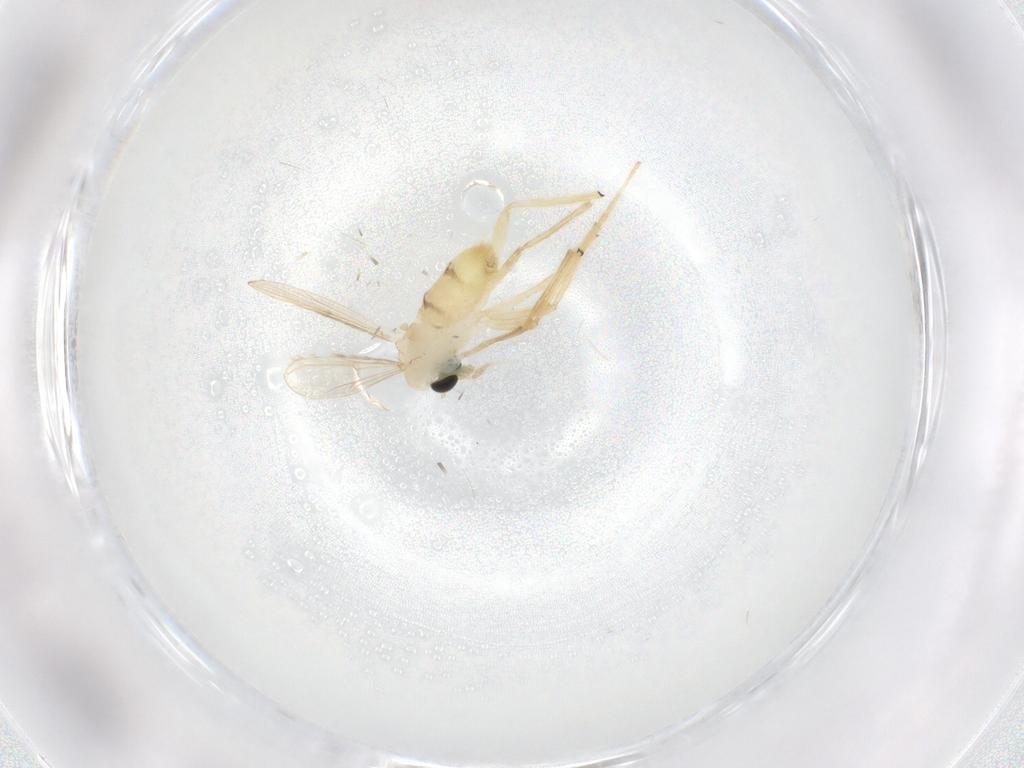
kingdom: Animalia
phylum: Arthropoda
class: Insecta
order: Diptera
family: Chironomidae
